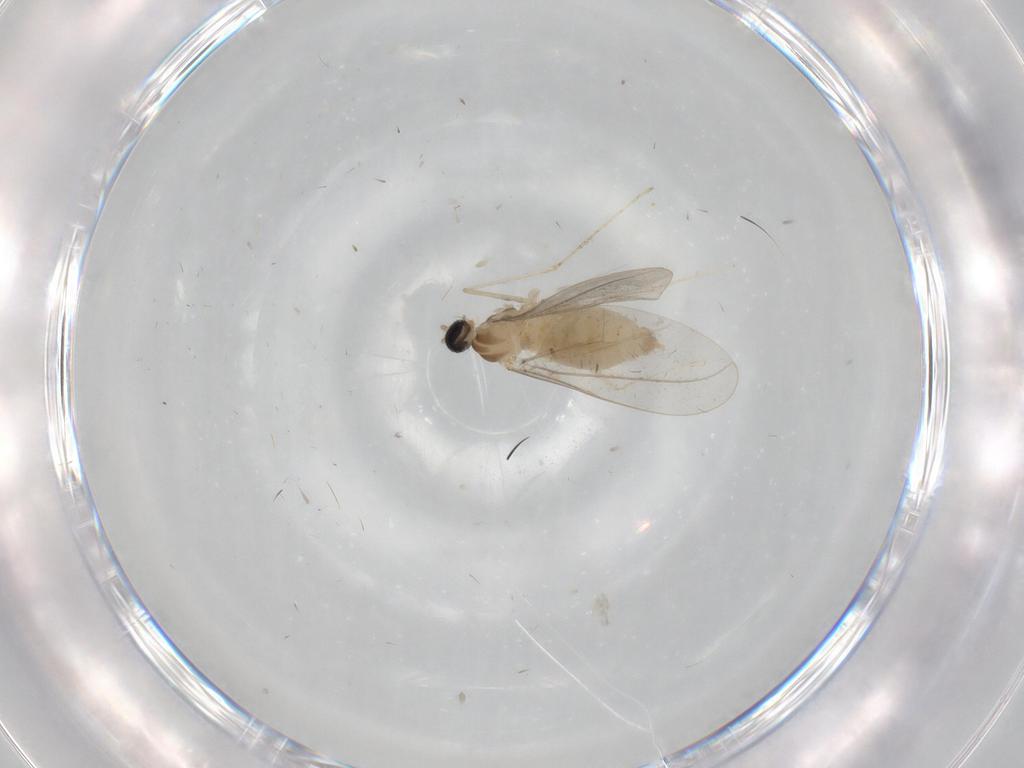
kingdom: Animalia
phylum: Arthropoda
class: Insecta
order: Diptera
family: Cecidomyiidae
